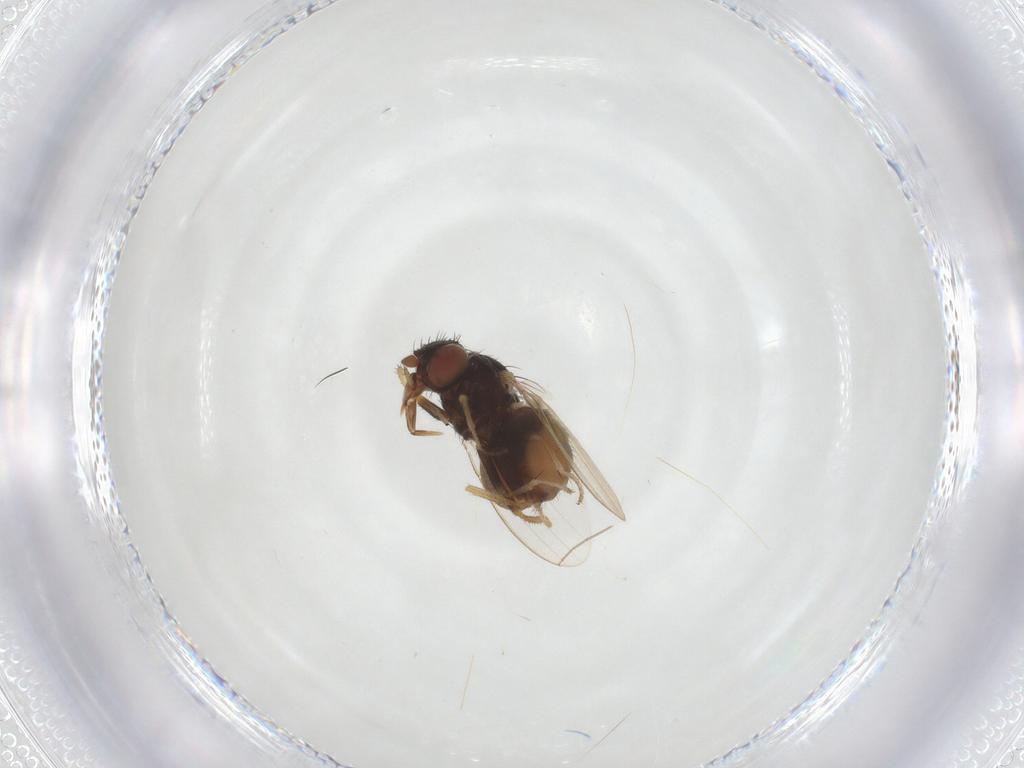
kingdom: Animalia
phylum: Arthropoda
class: Insecta
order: Diptera
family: Milichiidae
